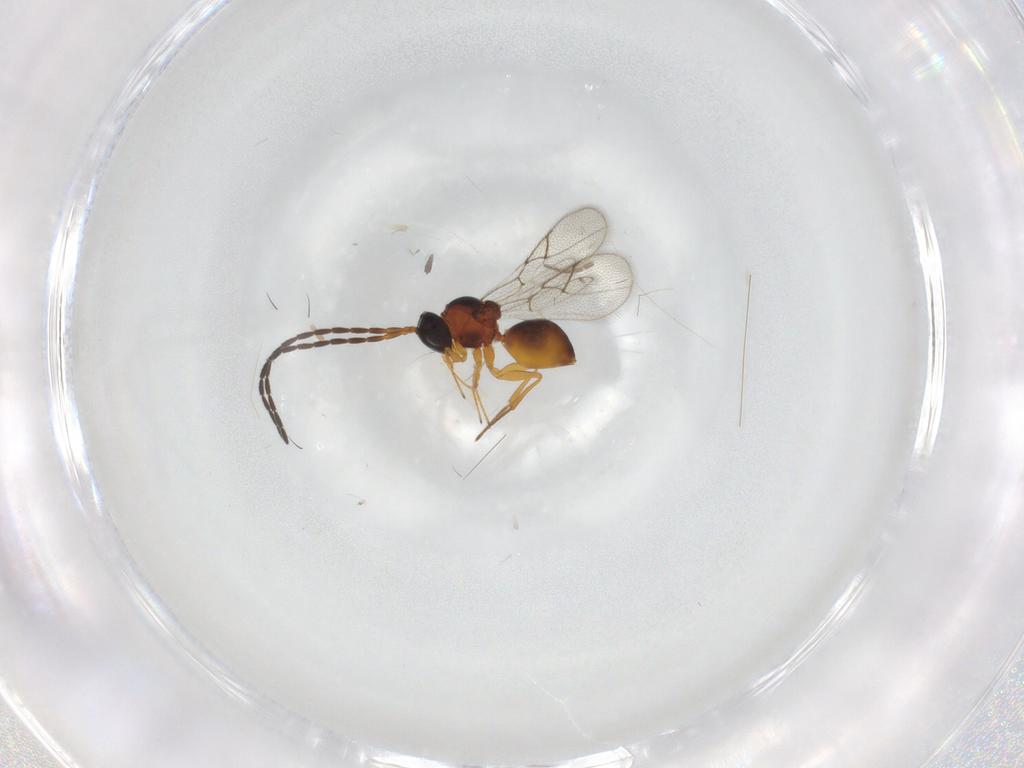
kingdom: Animalia
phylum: Arthropoda
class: Insecta
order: Hymenoptera
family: Figitidae
